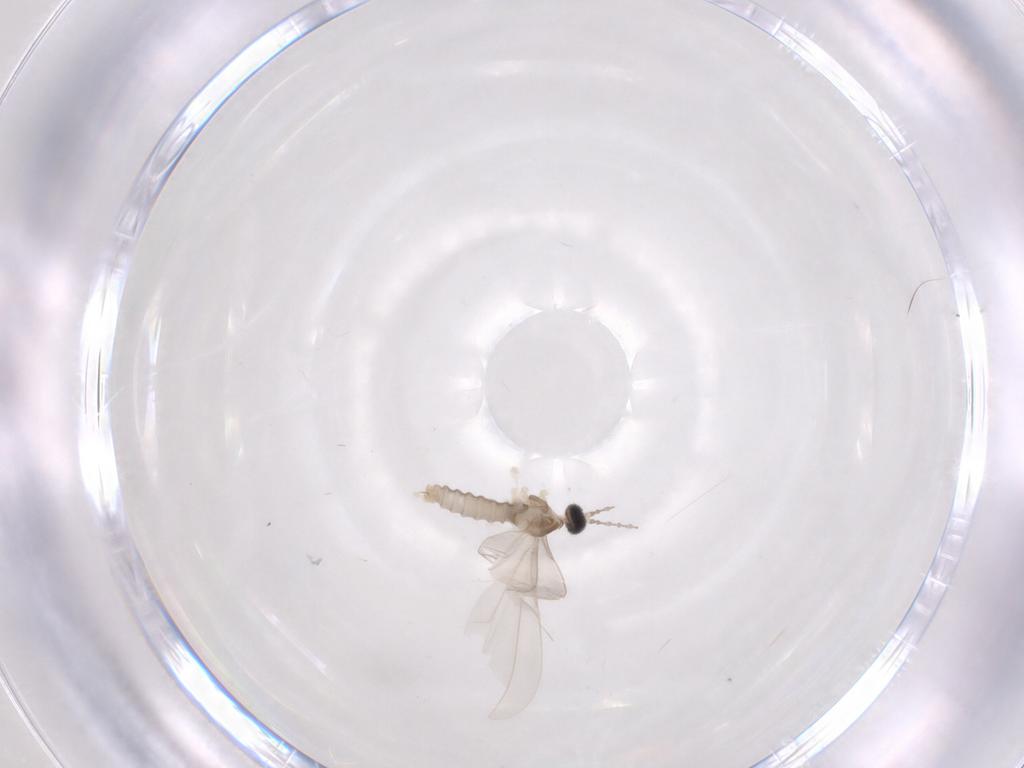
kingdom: Animalia
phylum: Arthropoda
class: Insecta
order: Diptera
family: Cecidomyiidae
